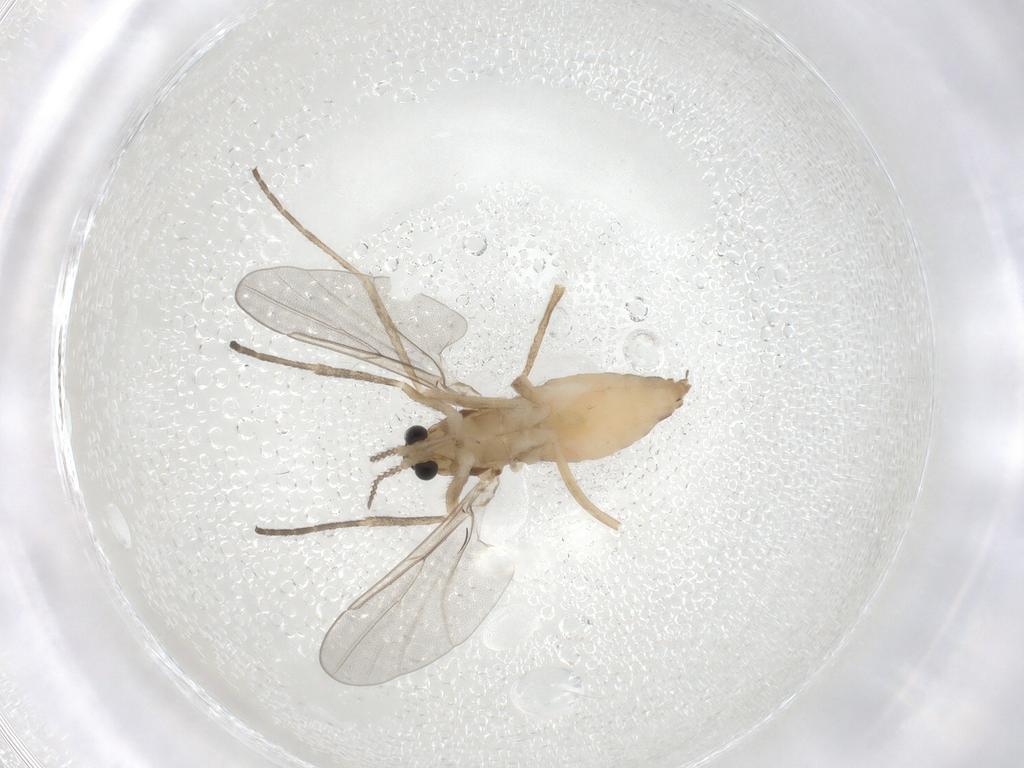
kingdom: Animalia
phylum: Arthropoda
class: Insecta
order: Diptera
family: Cecidomyiidae
